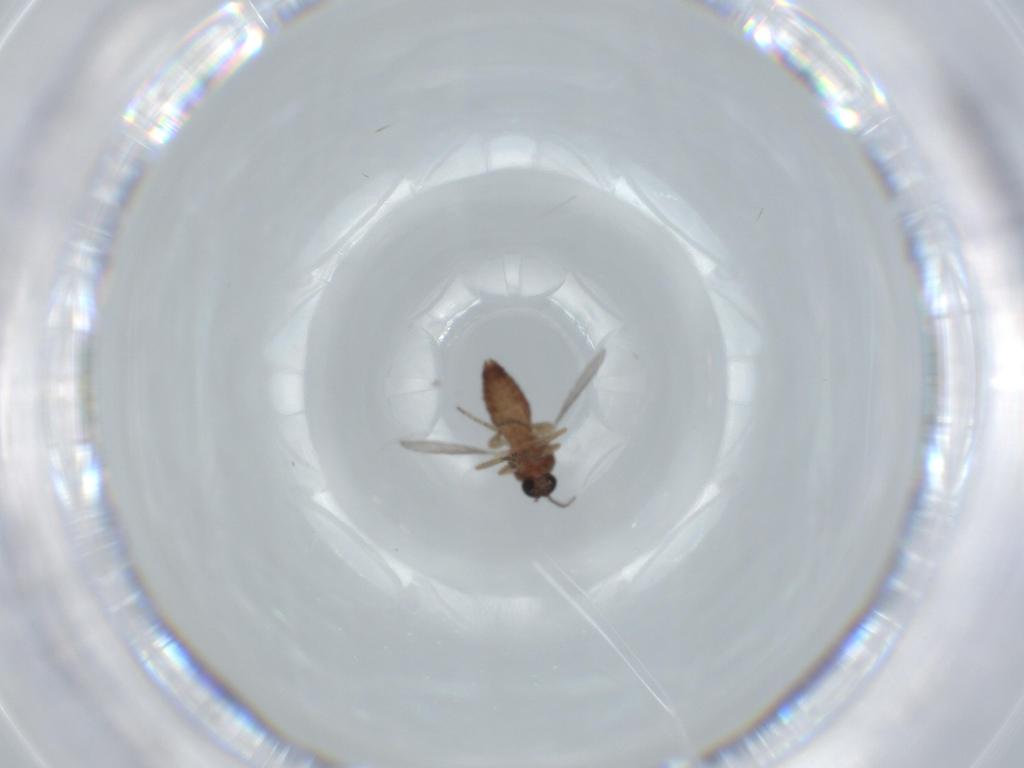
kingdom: Animalia
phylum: Arthropoda
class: Insecta
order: Diptera
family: Ceratopogonidae
